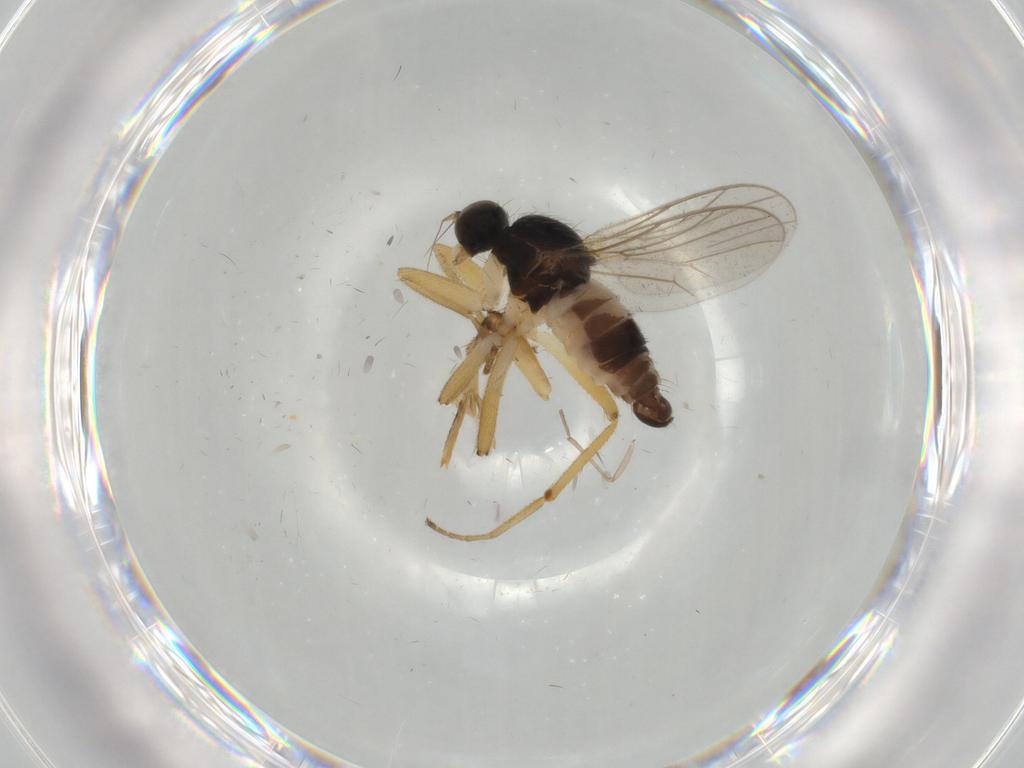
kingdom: Animalia
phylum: Arthropoda
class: Insecta
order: Diptera
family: Hybotidae
